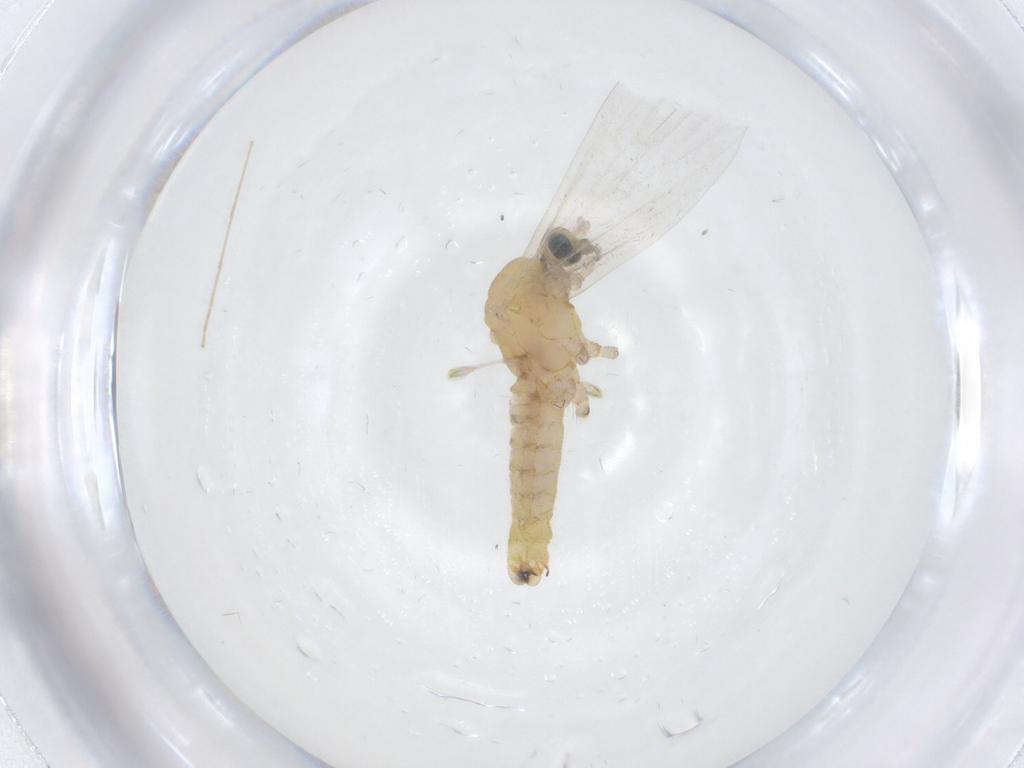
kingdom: Animalia
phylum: Arthropoda
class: Insecta
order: Diptera
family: Chironomidae
